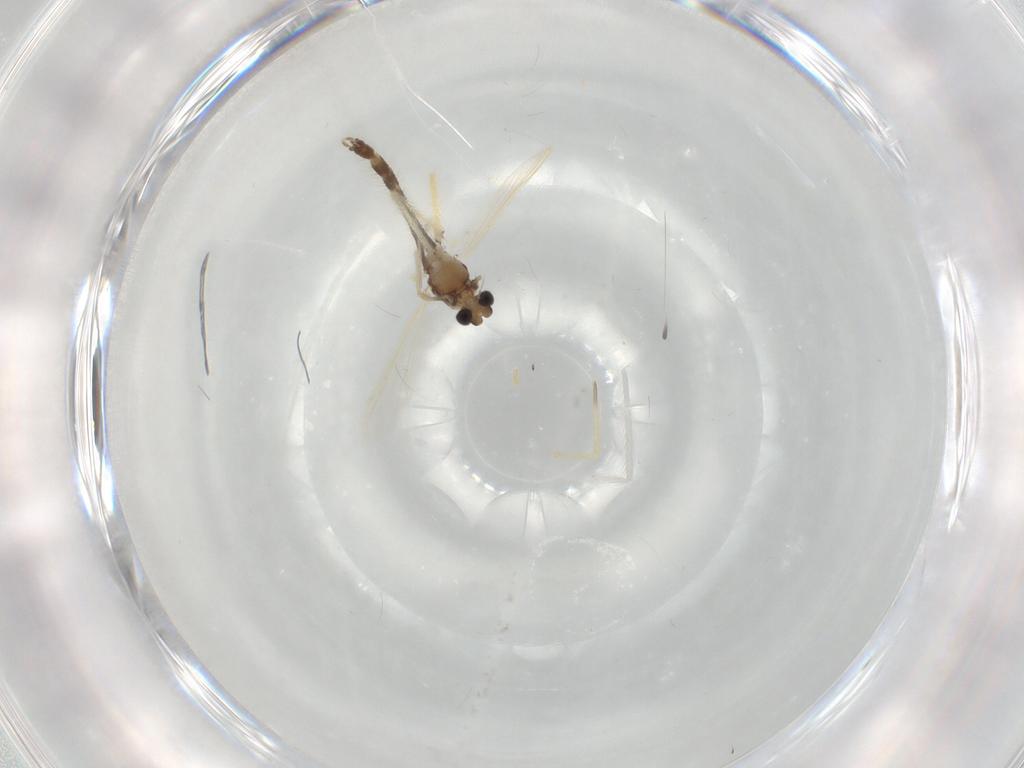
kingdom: Animalia
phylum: Arthropoda
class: Insecta
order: Diptera
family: Chironomidae
